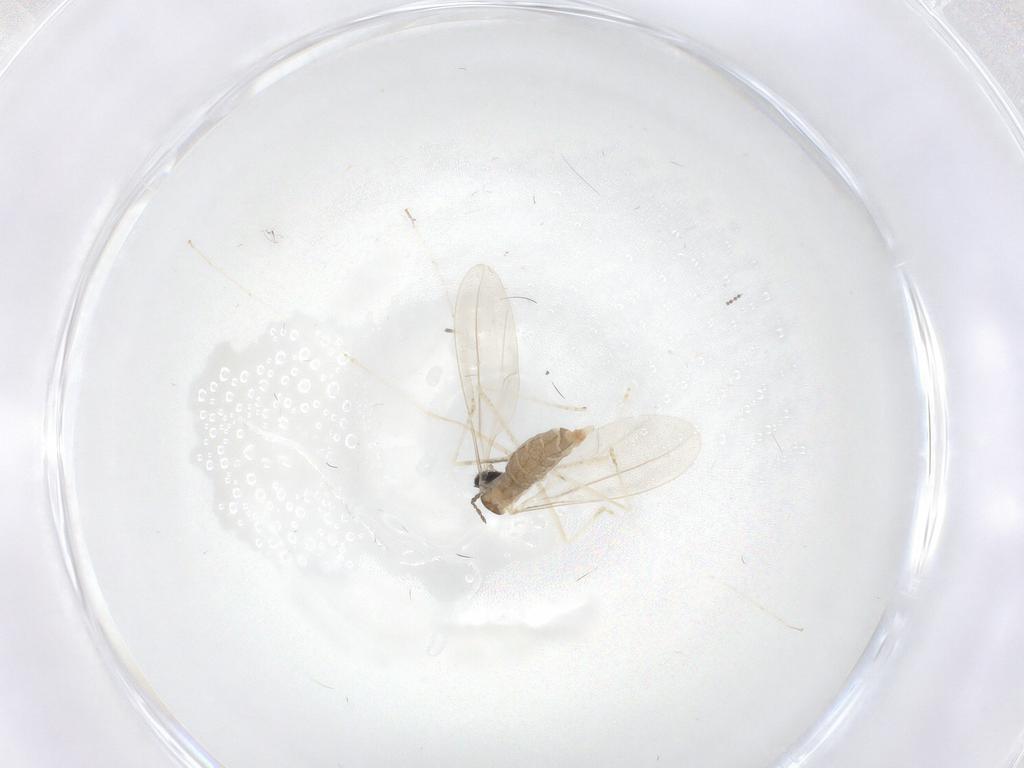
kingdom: Animalia
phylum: Arthropoda
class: Insecta
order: Diptera
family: Cecidomyiidae
